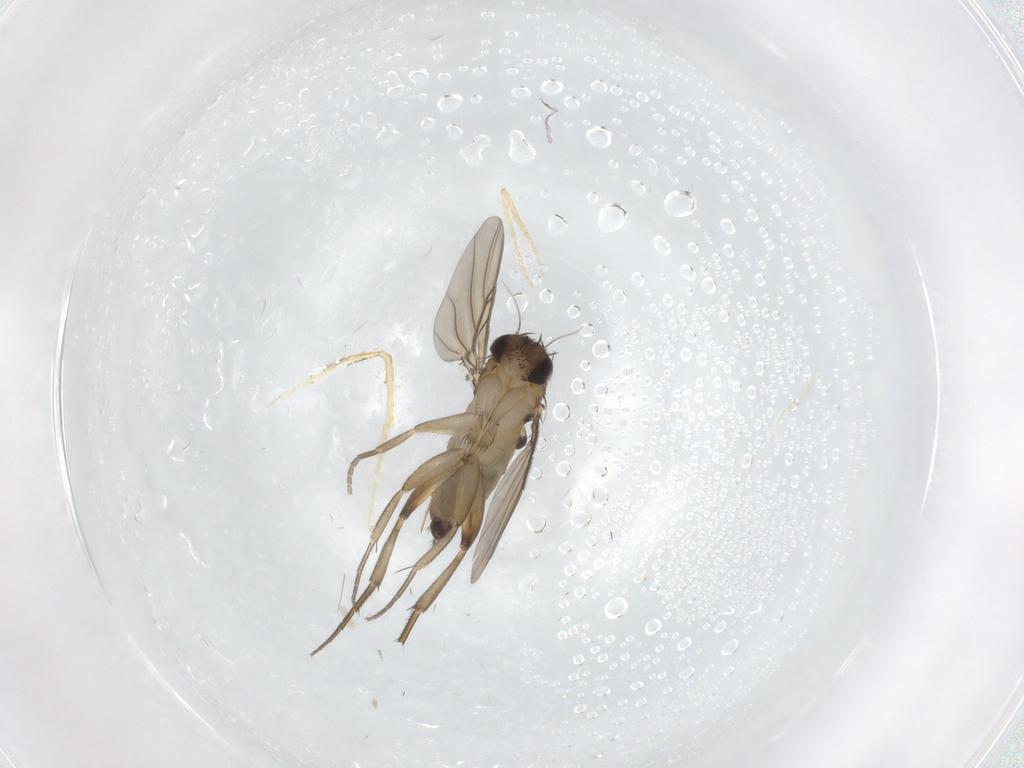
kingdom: Animalia
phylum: Arthropoda
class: Insecta
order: Diptera
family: Phoridae
